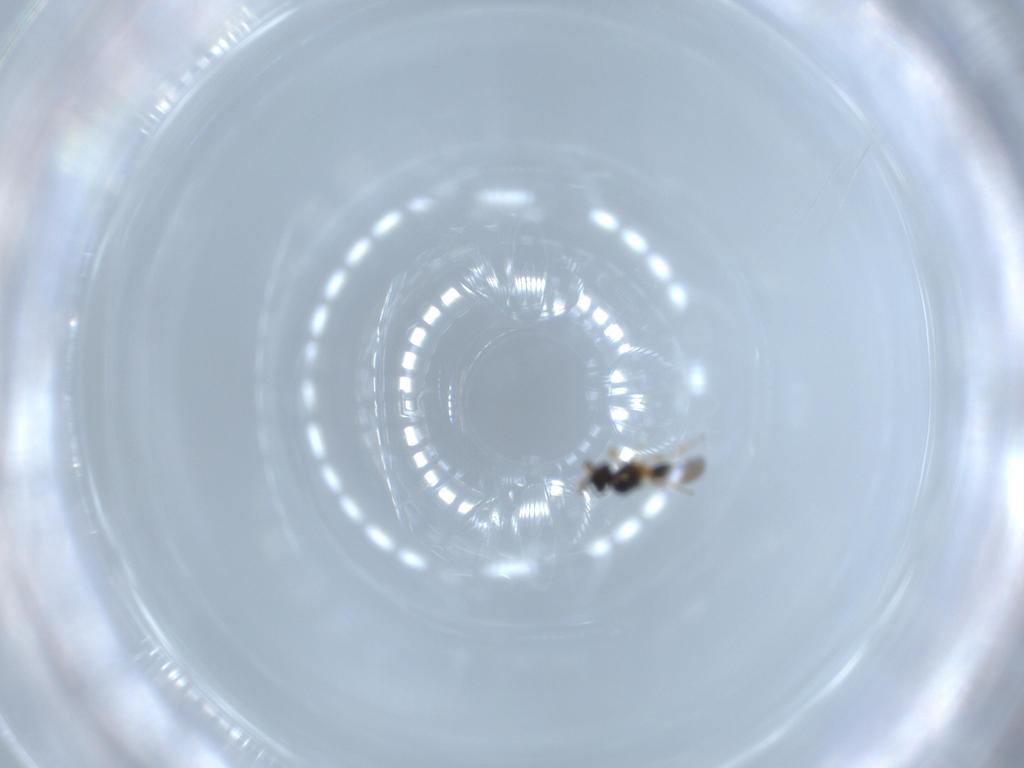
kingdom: Animalia
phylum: Arthropoda
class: Insecta
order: Hymenoptera
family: Platygastridae
